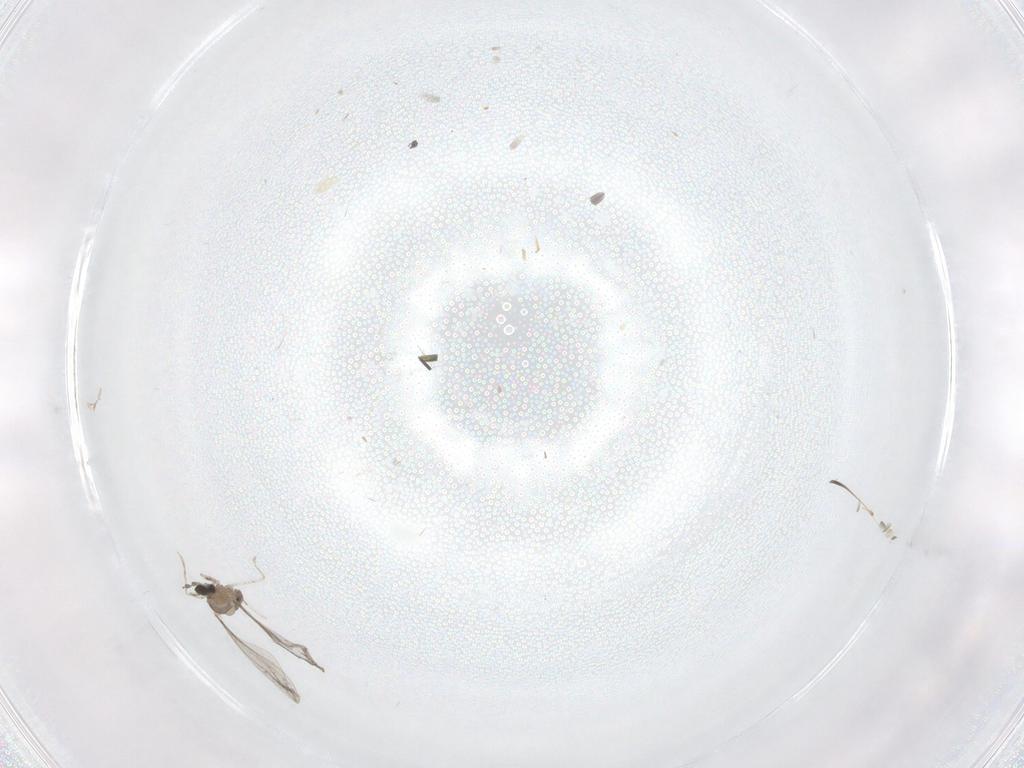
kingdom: Animalia
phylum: Arthropoda
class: Insecta
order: Diptera
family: Cecidomyiidae
